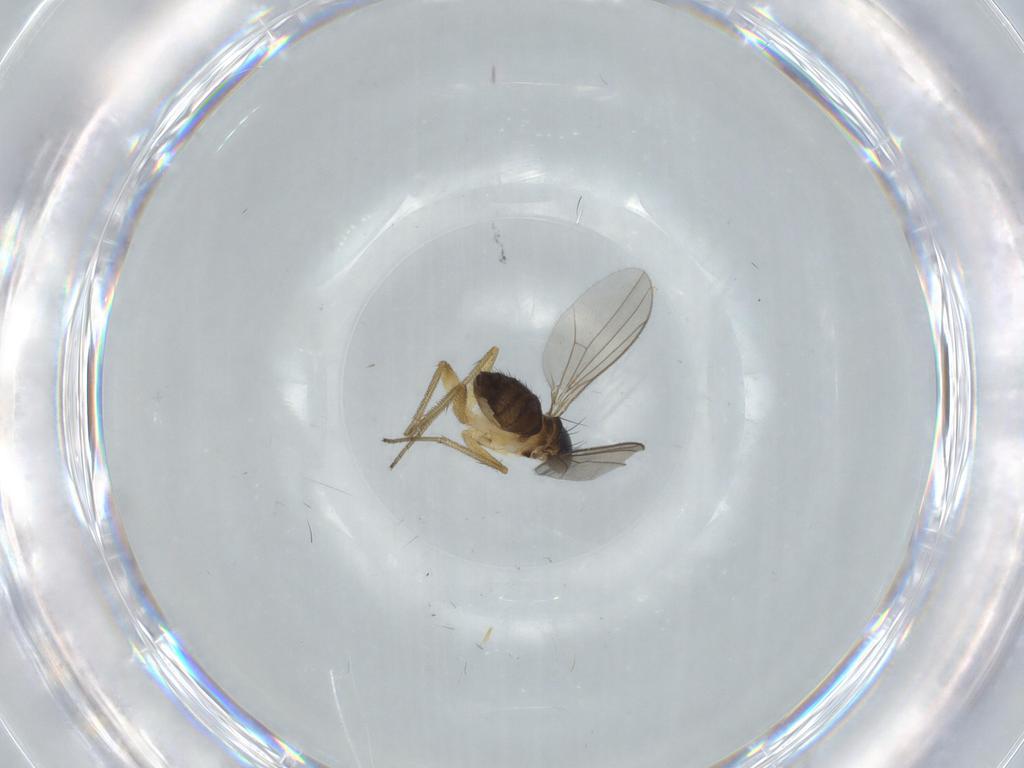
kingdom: Animalia
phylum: Arthropoda
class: Insecta
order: Diptera
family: Dolichopodidae
